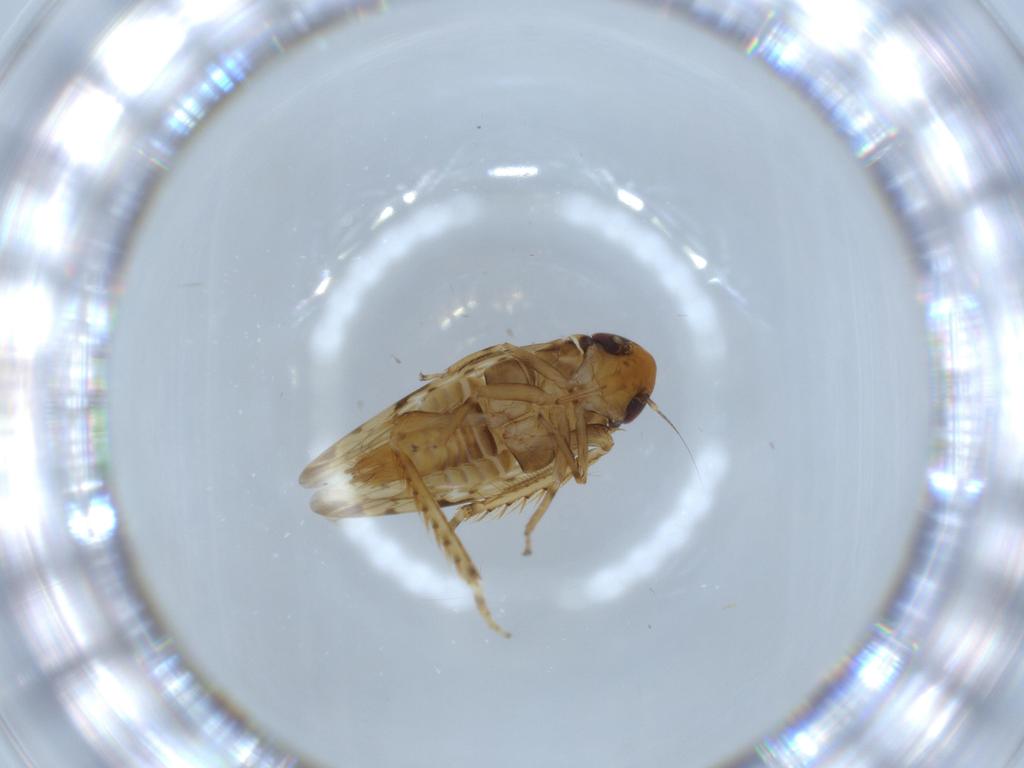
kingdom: Animalia
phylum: Arthropoda
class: Insecta
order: Hemiptera
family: Cicadellidae
